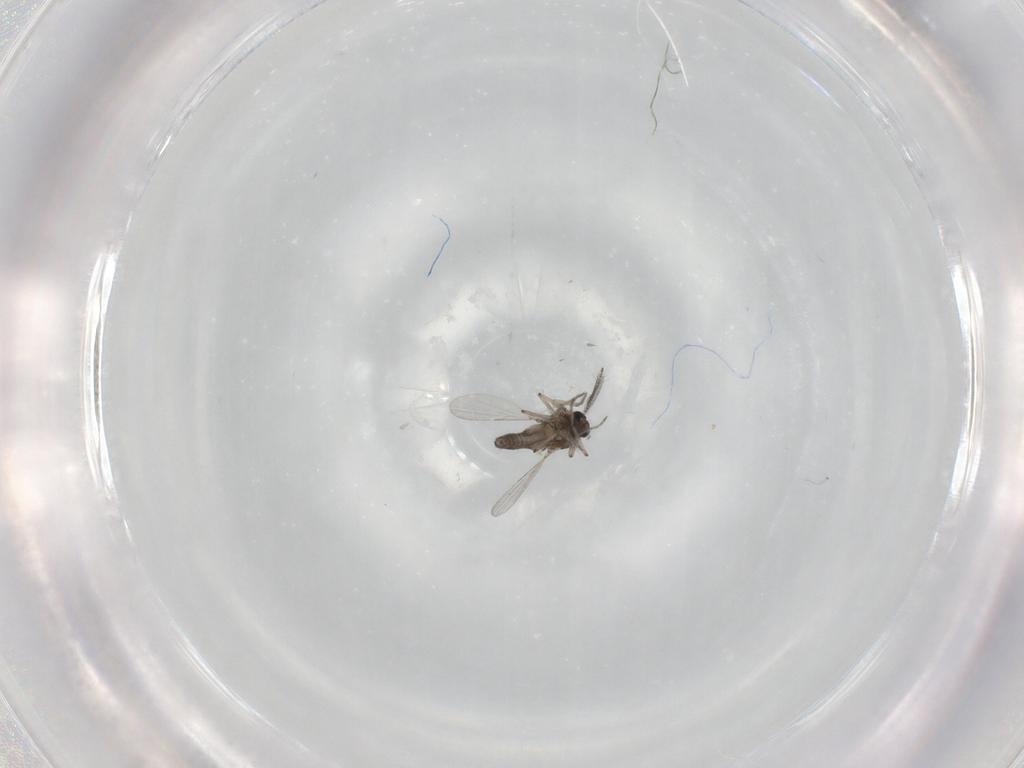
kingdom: Animalia
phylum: Arthropoda
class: Insecta
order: Diptera
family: Ceratopogonidae
